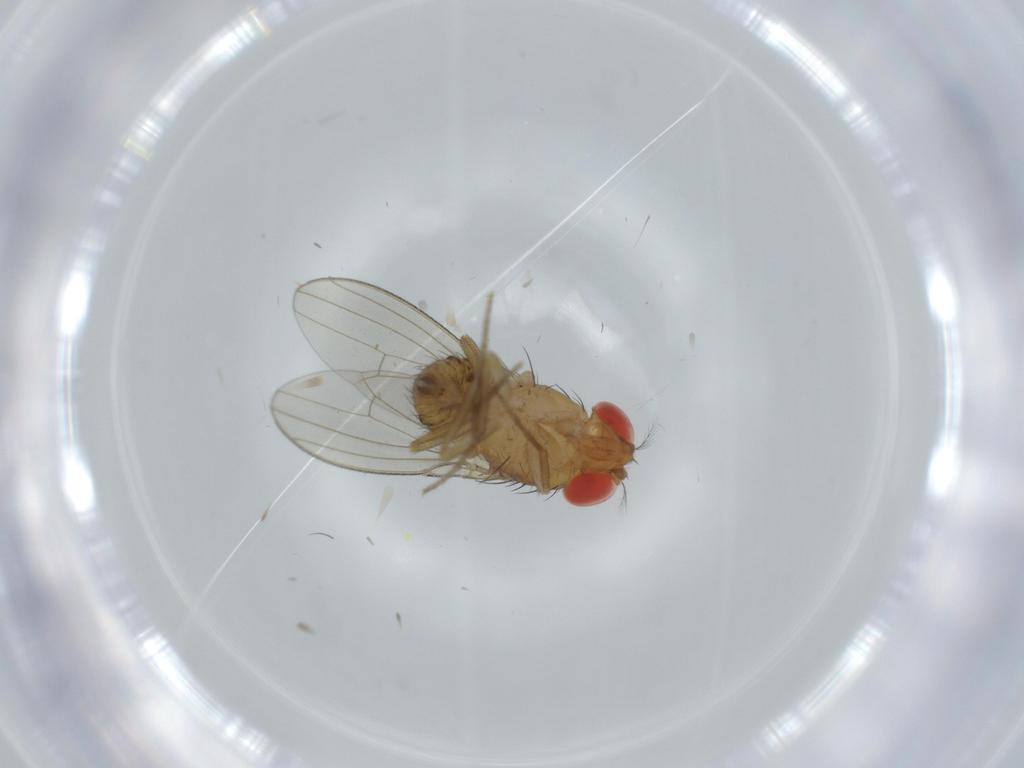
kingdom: Animalia
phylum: Arthropoda
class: Insecta
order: Diptera
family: Drosophilidae
